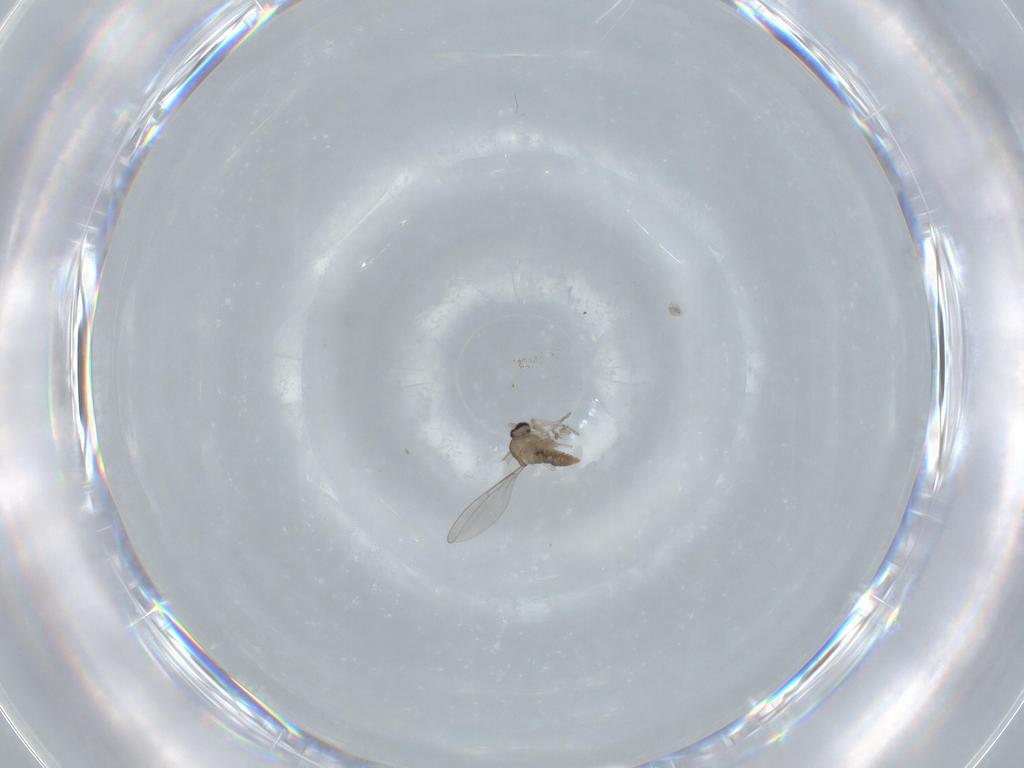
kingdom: Animalia
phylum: Arthropoda
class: Insecta
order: Diptera
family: Cecidomyiidae
